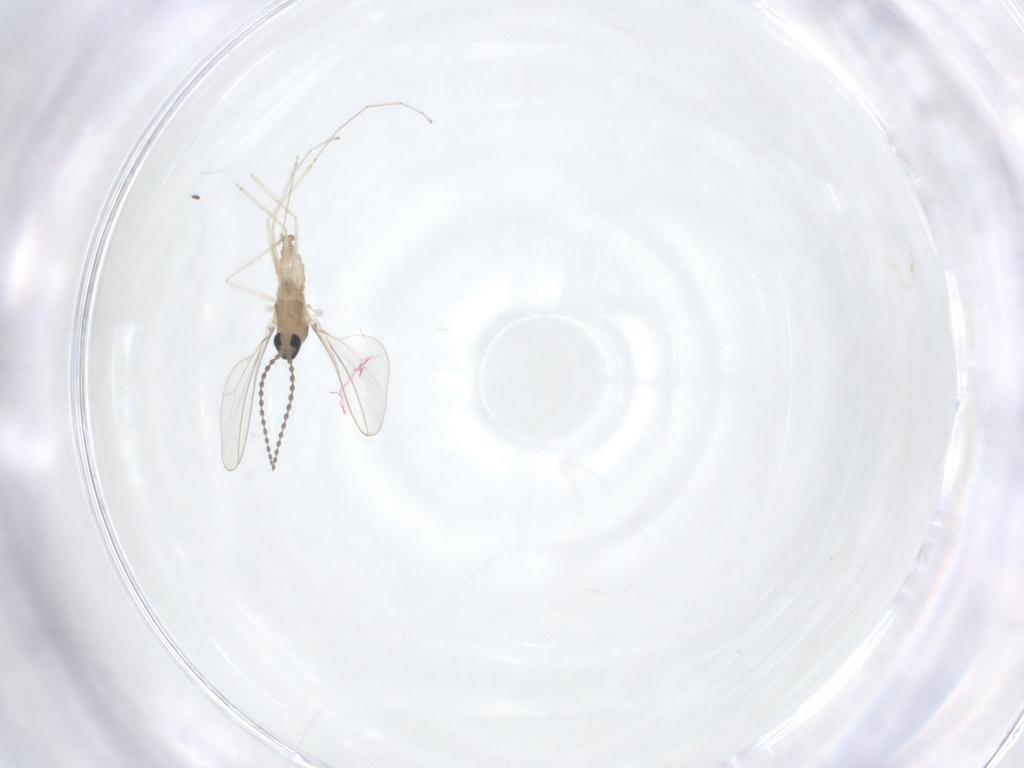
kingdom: Animalia
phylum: Arthropoda
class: Insecta
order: Diptera
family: Cecidomyiidae
